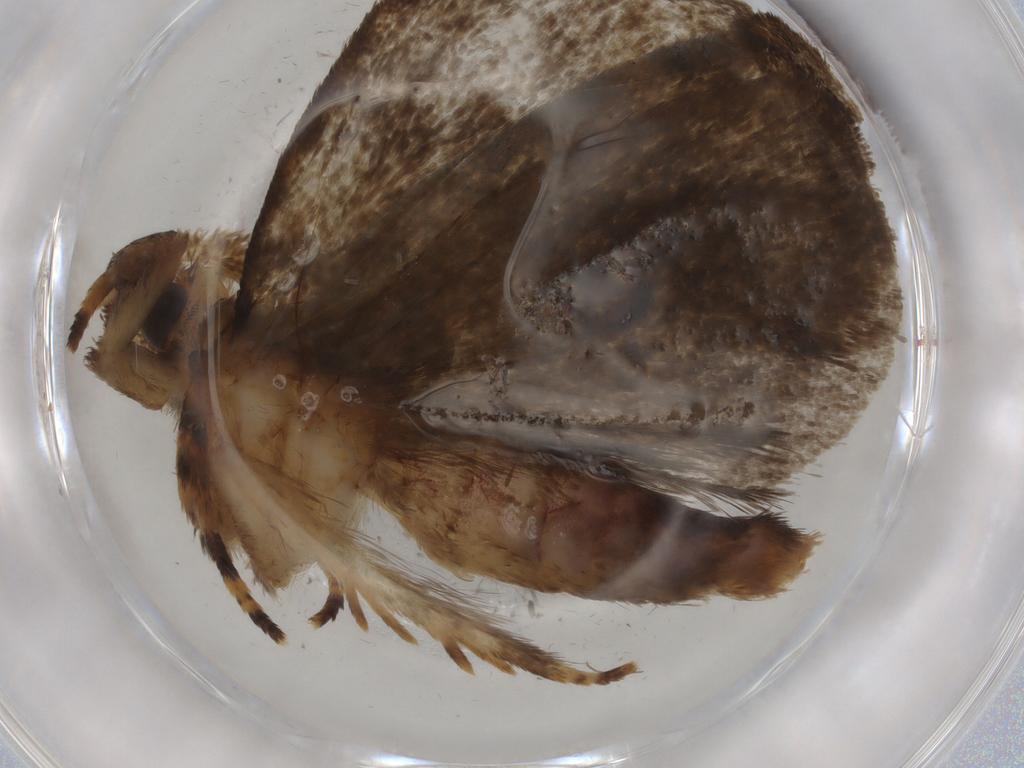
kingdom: Animalia
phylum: Arthropoda
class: Insecta
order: Lepidoptera
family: Tineidae
